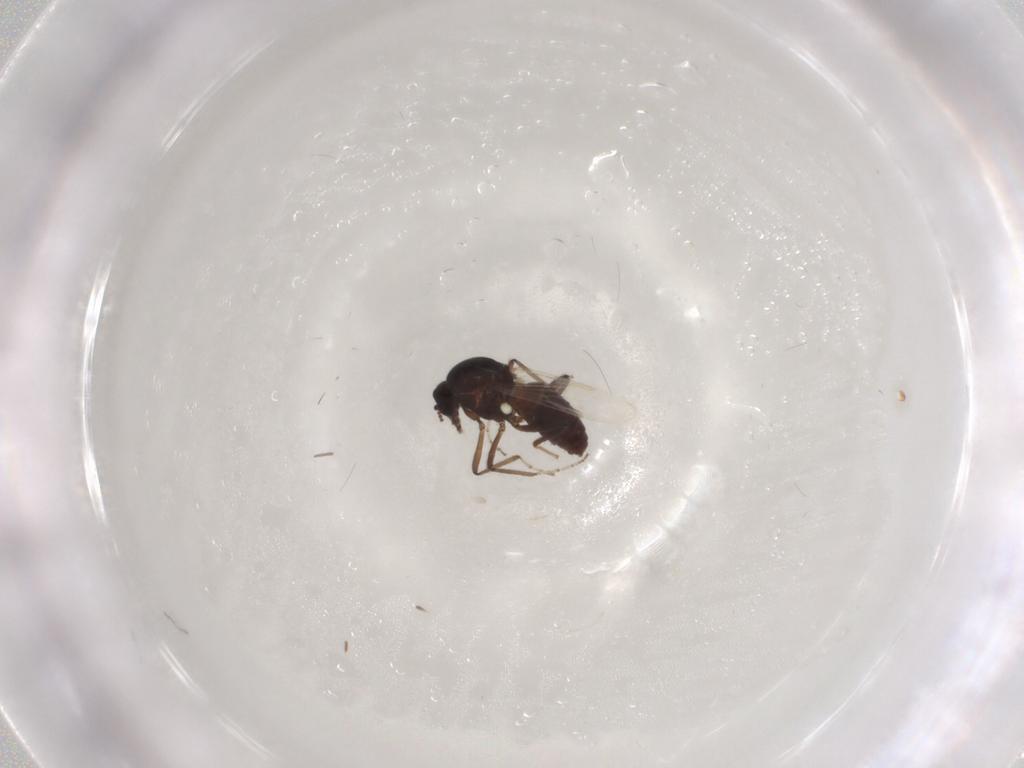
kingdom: Animalia
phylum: Arthropoda
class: Insecta
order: Diptera
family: Ceratopogonidae
